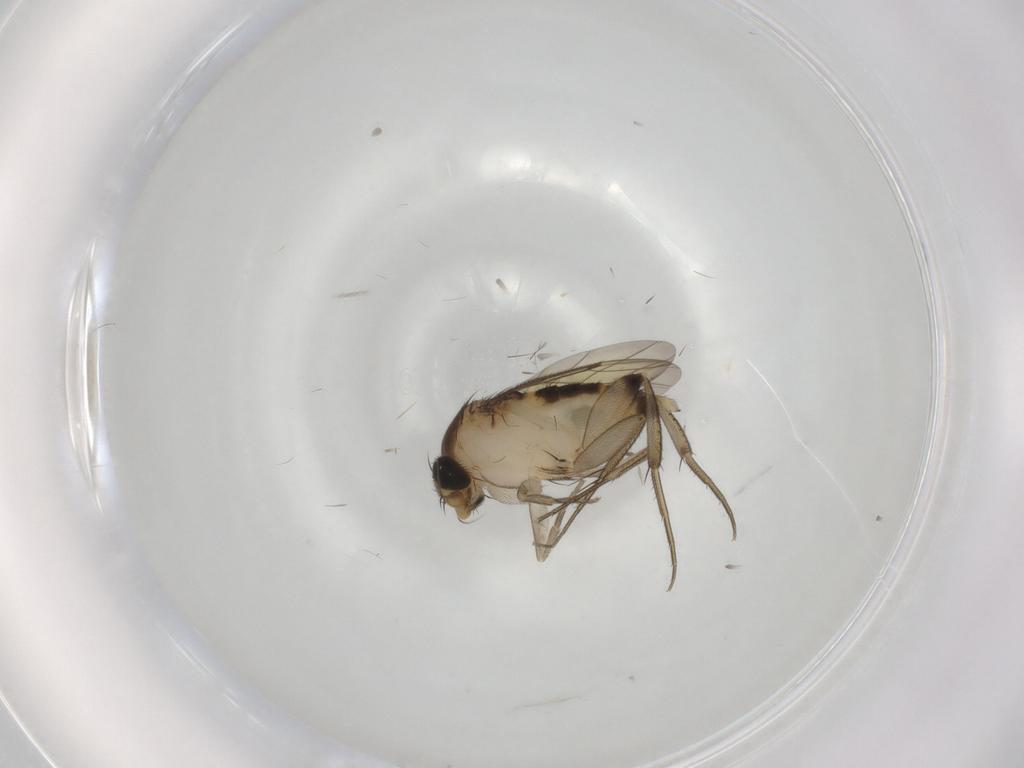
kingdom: Animalia
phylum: Arthropoda
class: Insecta
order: Diptera
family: Phoridae
